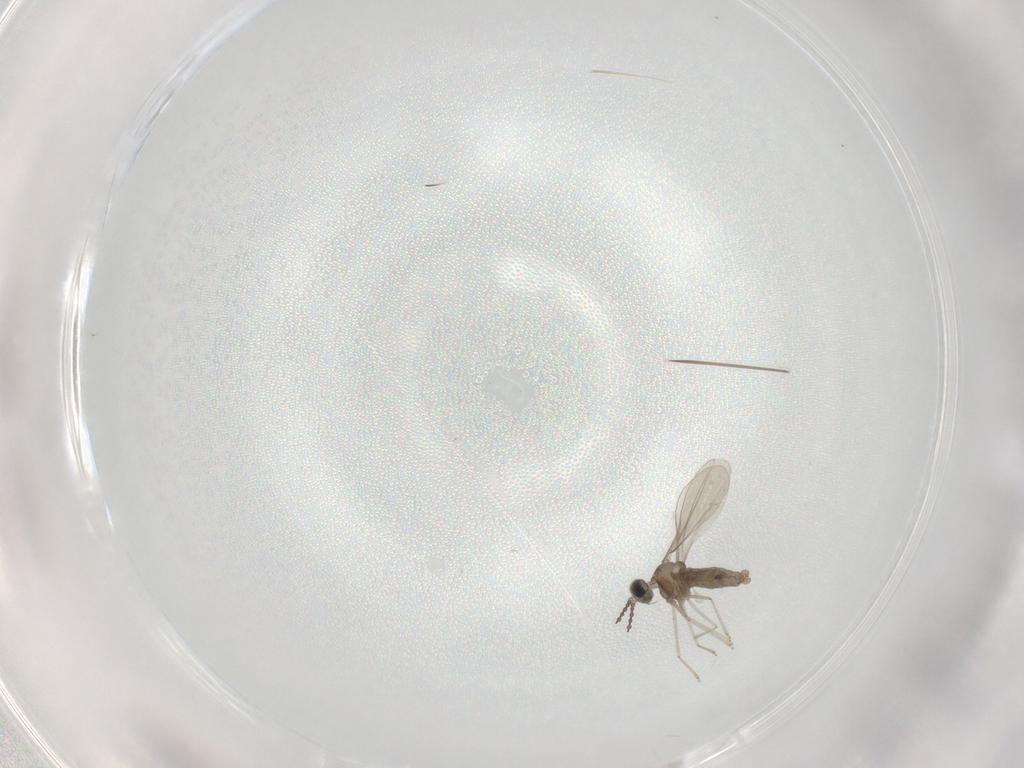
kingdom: Animalia
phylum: Arthropoda
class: Insecta
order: Diptera
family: Cecidomyiidae
